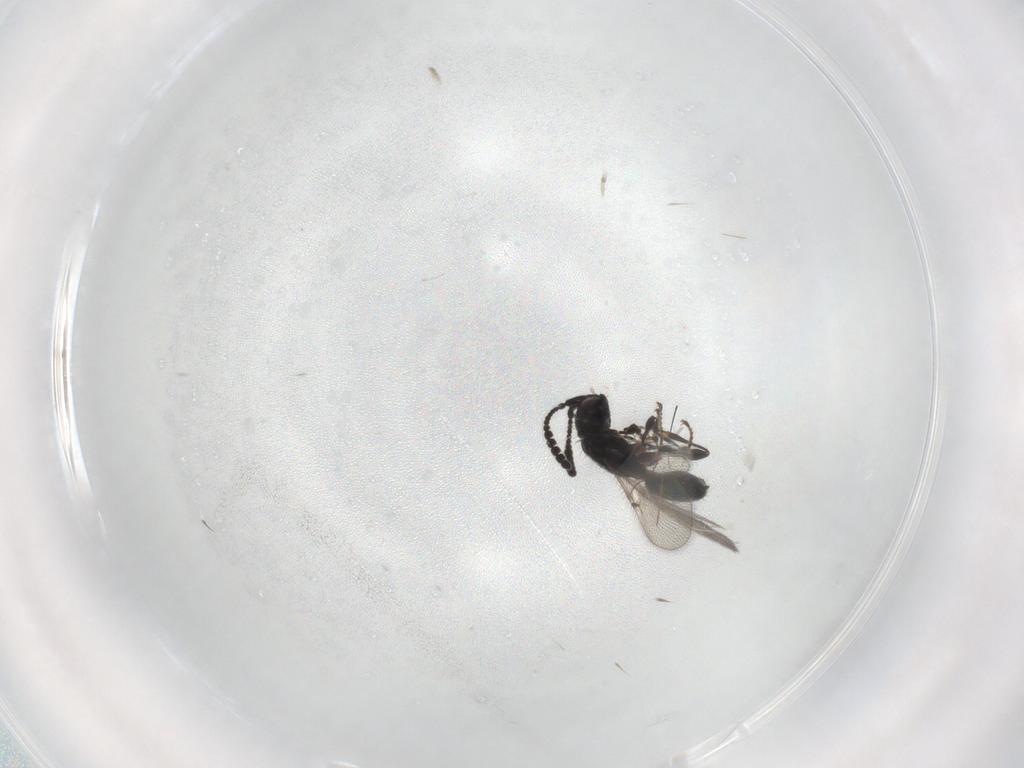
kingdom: Animalia
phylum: Arthropoda
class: Insecta
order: Hymenoptera
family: Diapriidae
